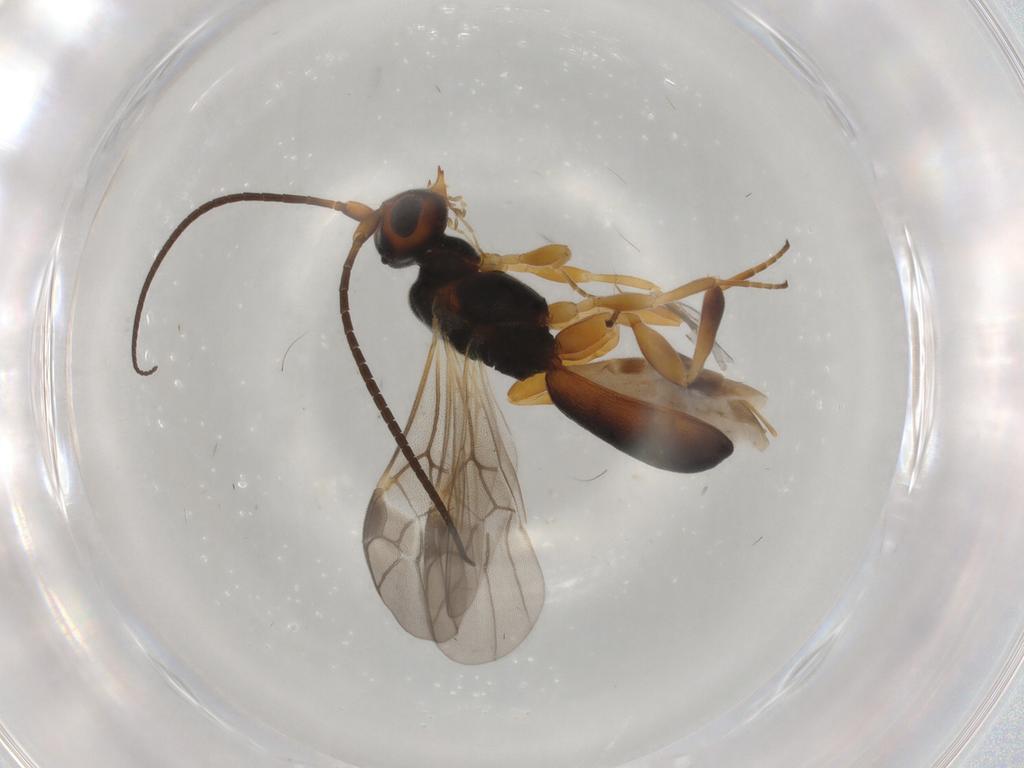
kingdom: Animalia
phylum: Arthropoda
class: Insecta
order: Hymenoptera
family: Braconidae
